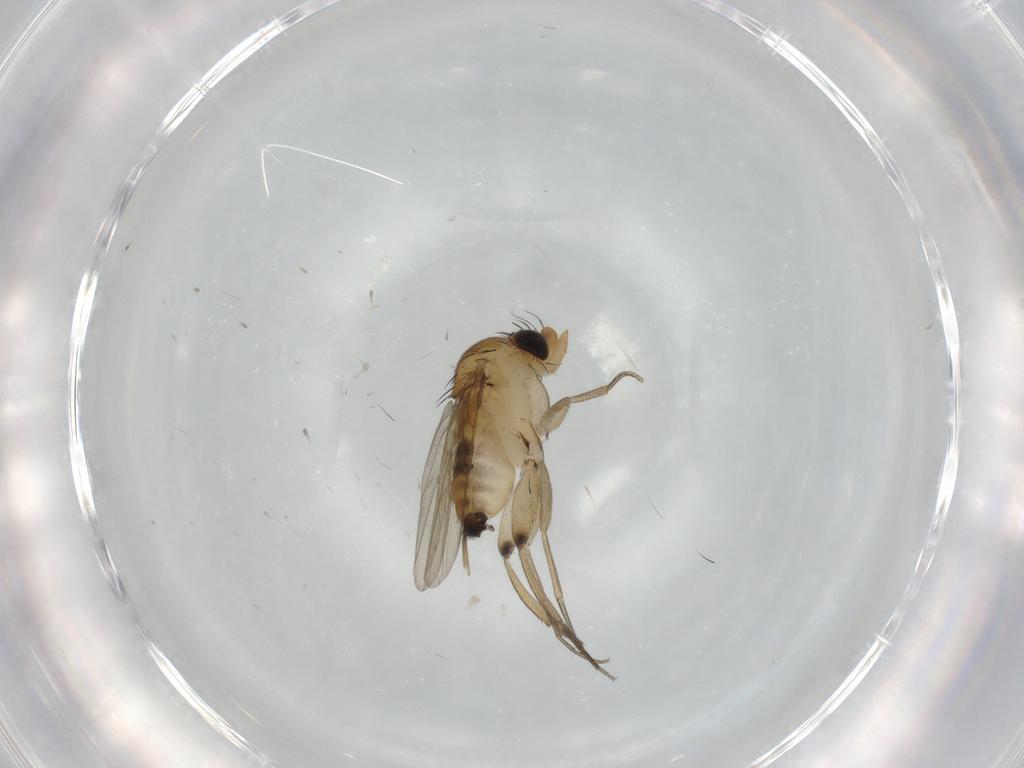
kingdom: Animalia
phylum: Arthropoda
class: Insecta
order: Diptera
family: Phoridae
